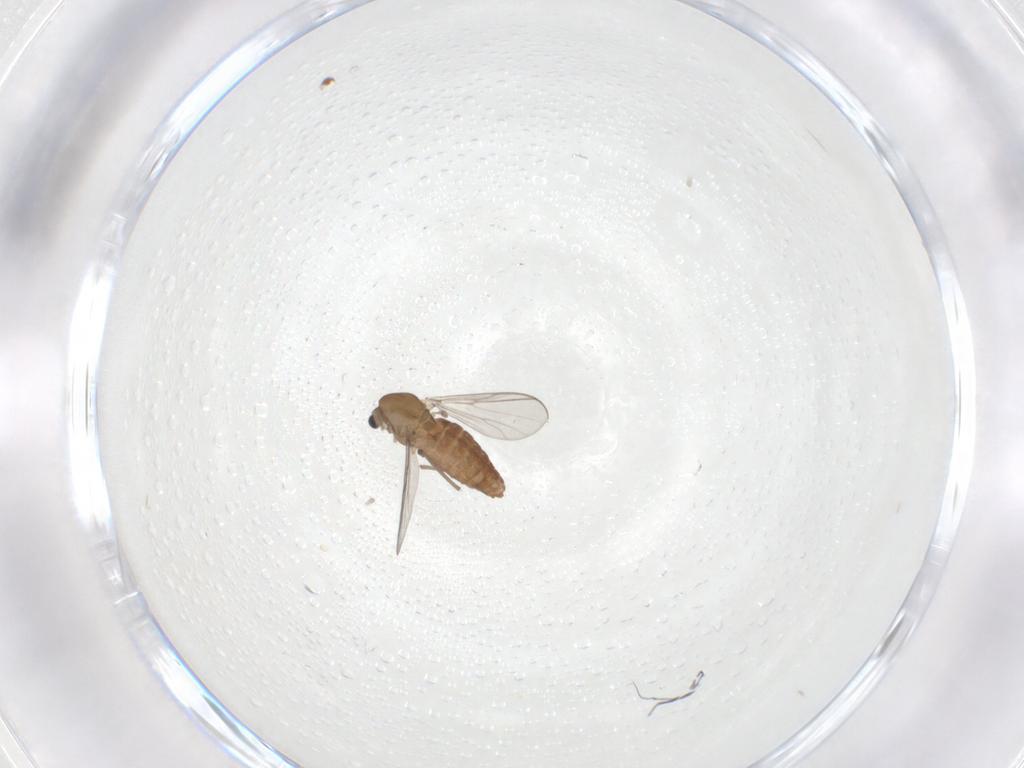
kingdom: Animalia
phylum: Arthropoda
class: Insecta
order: Diptera
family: Chironomidae
